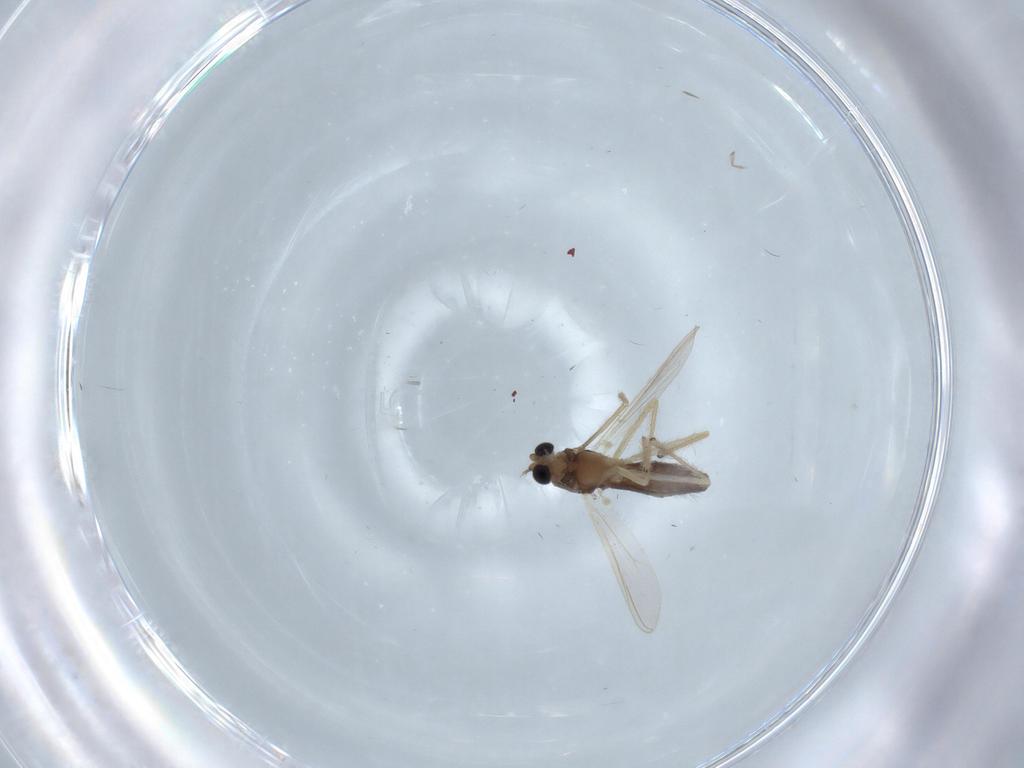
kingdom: Animalia
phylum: Arthropoda
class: Insecta
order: Diptera
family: Chironomidae
